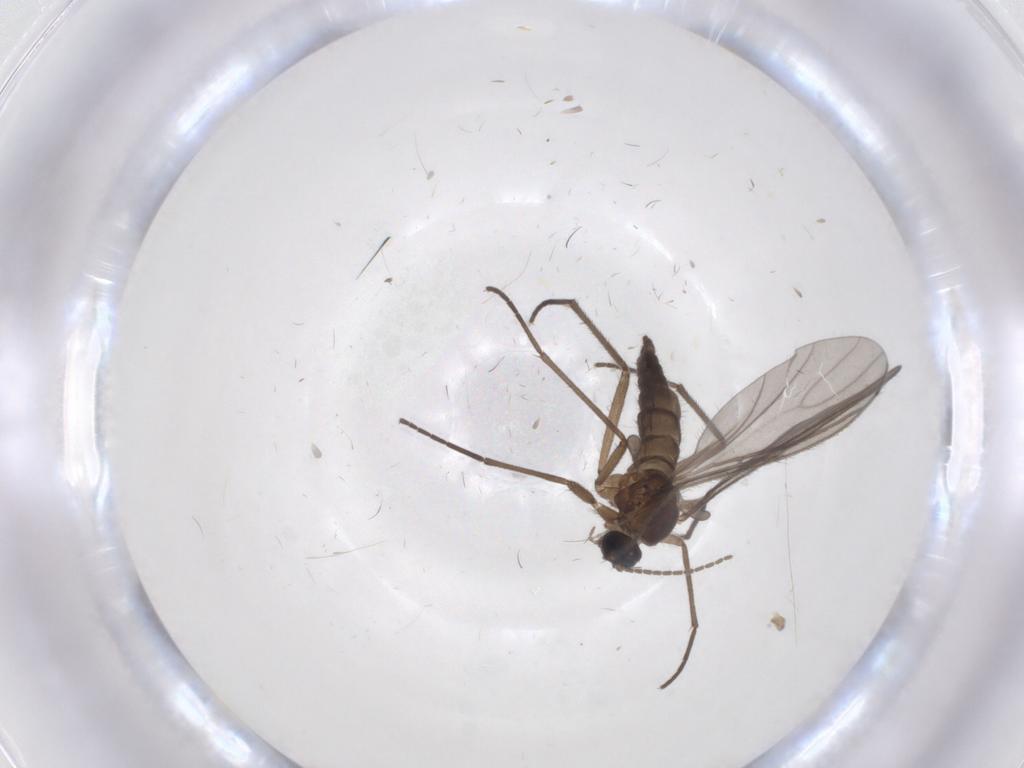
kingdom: Animalia
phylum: Arthropoda
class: Insecta
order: Diptera
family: Sciaridae
